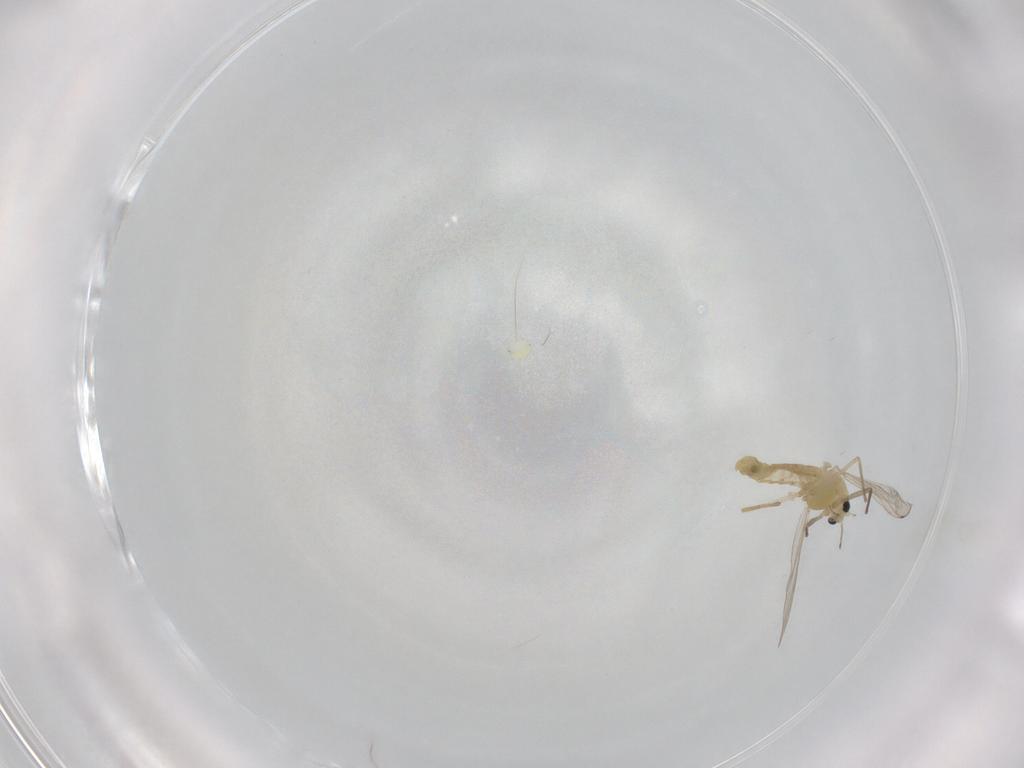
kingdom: Animalia
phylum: Arthropoda
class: Insecta
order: Diptera
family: Chironomidae
